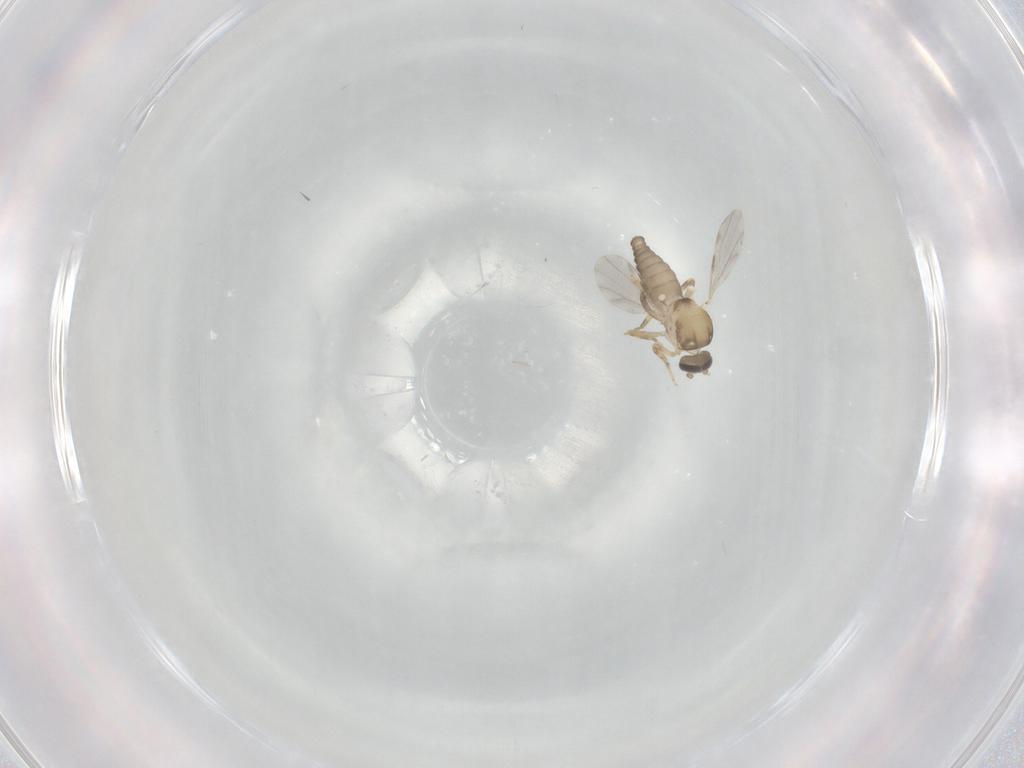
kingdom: Animalia
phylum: Arthropoda
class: Insecta
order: Diptera
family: Ceratopogonidae
